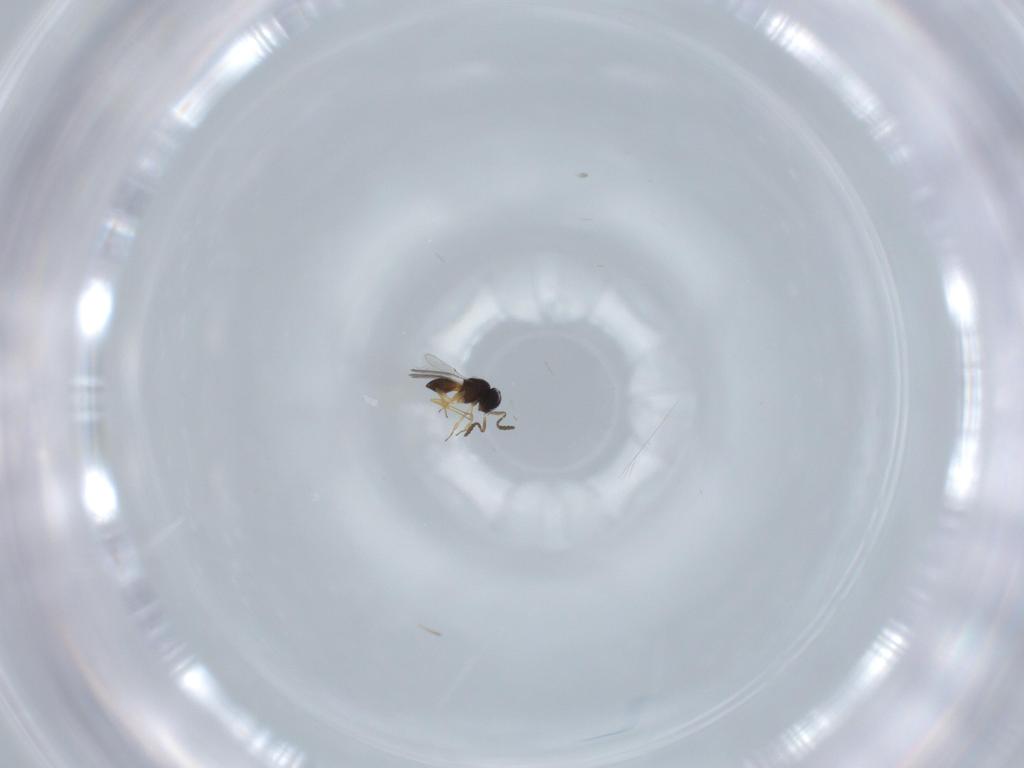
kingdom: Animalia
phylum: Arthropoda
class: Insecta
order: Hymenoptera
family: Scelionidae
